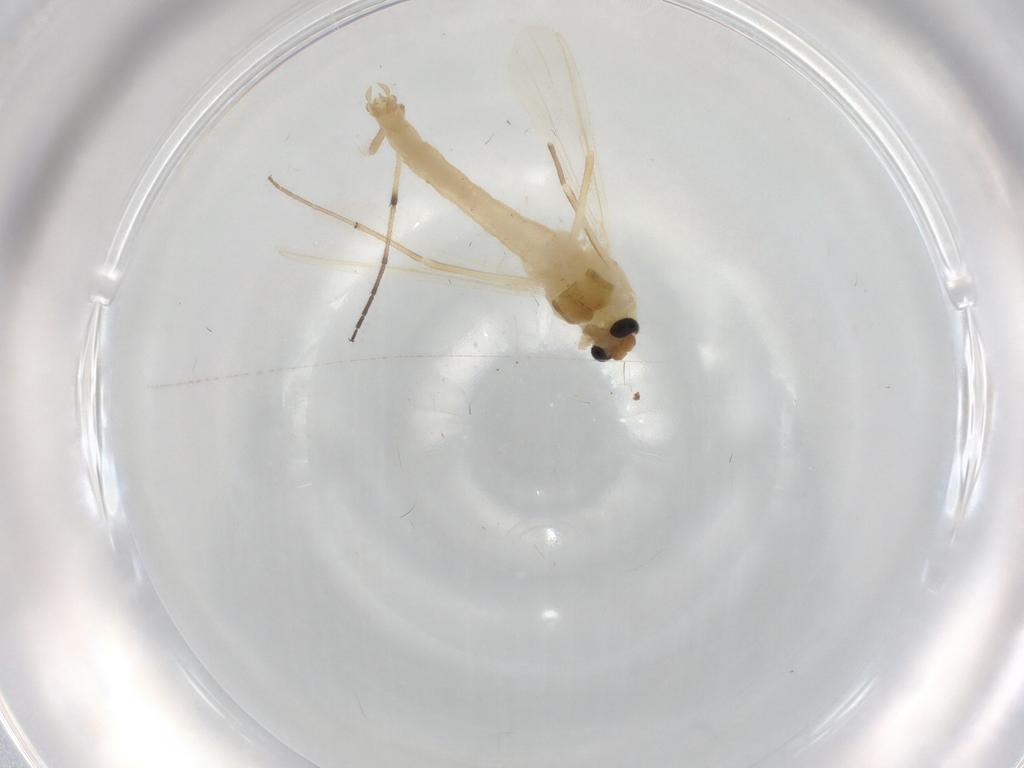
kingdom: Animalia
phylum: Arthropoda
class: Insecta
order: Diptera
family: Chironomidae
